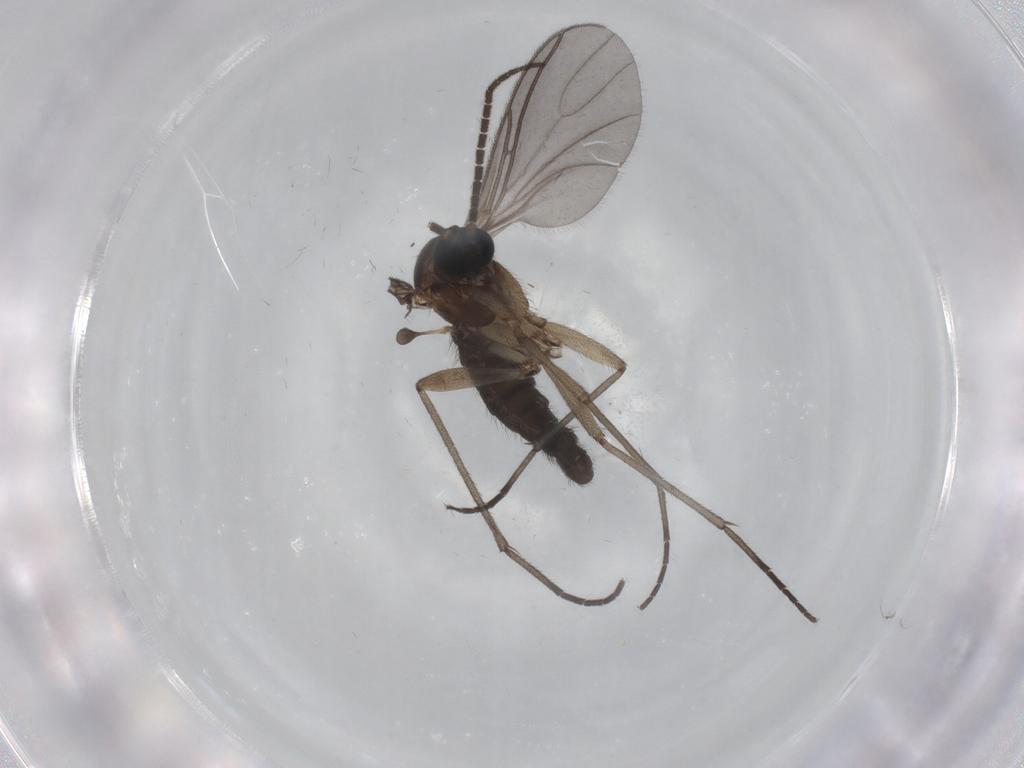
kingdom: Animalia
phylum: Arthropoda
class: Insecta
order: Diptera
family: Sciaridae
